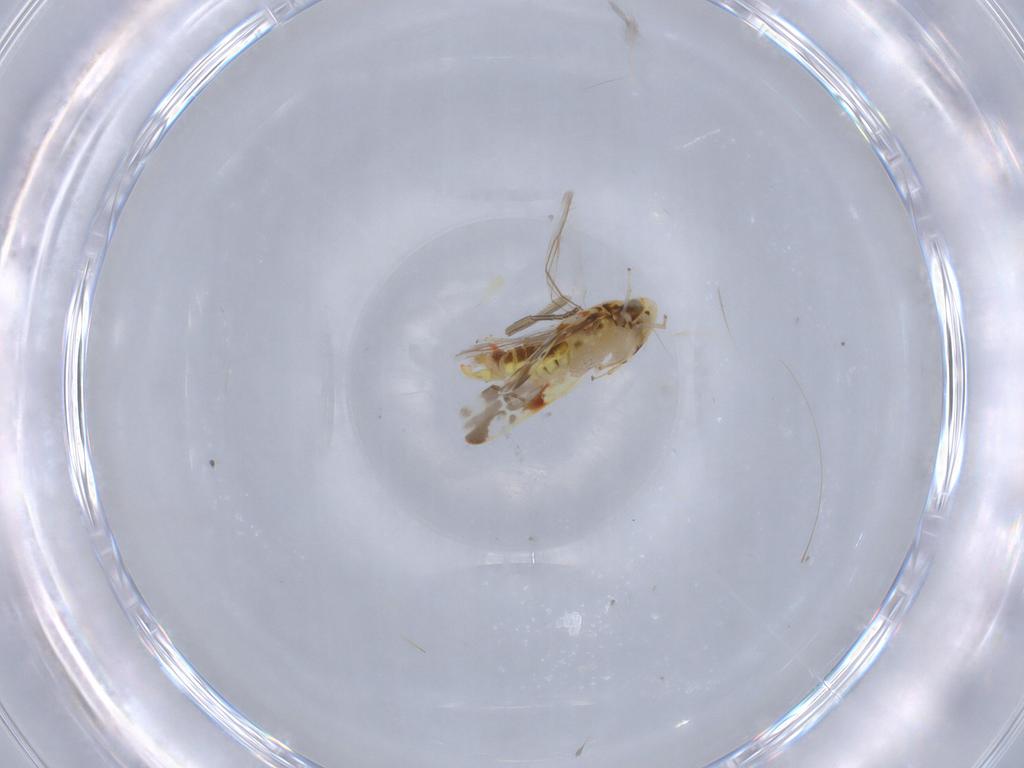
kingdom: Animalia
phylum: Arthropoda
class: Insecta
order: Hemiptera
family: Cicadellidae
